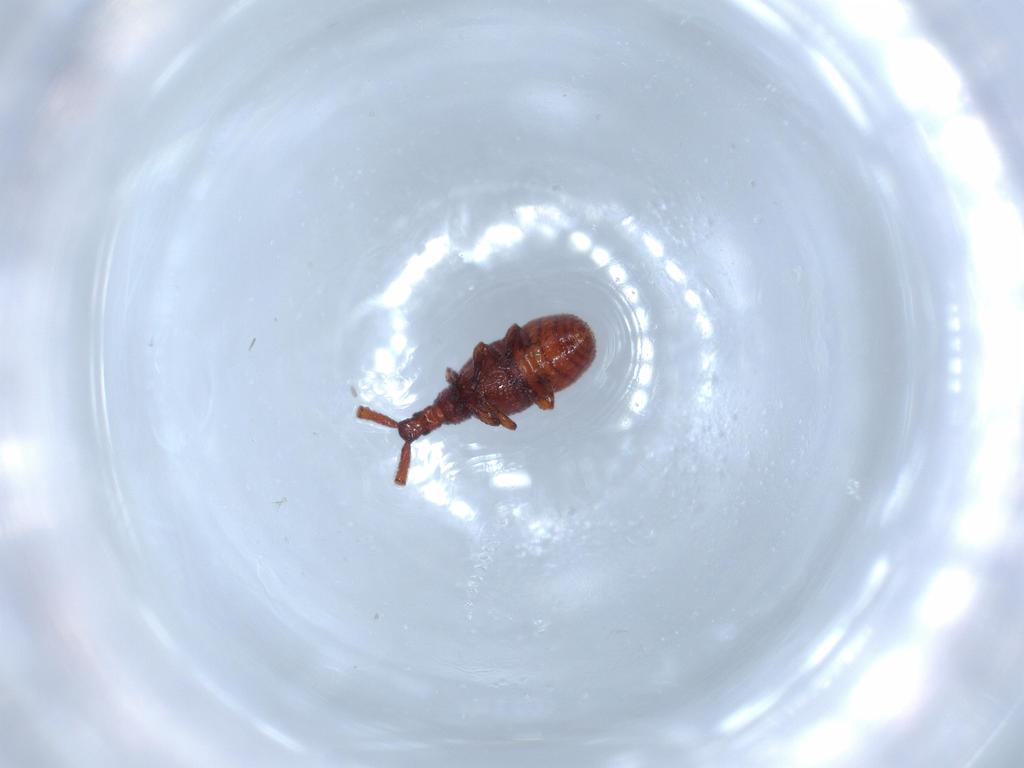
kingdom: Animalia
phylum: Arthropoda
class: Insecta
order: Coleoptera
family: Staphylinidae
